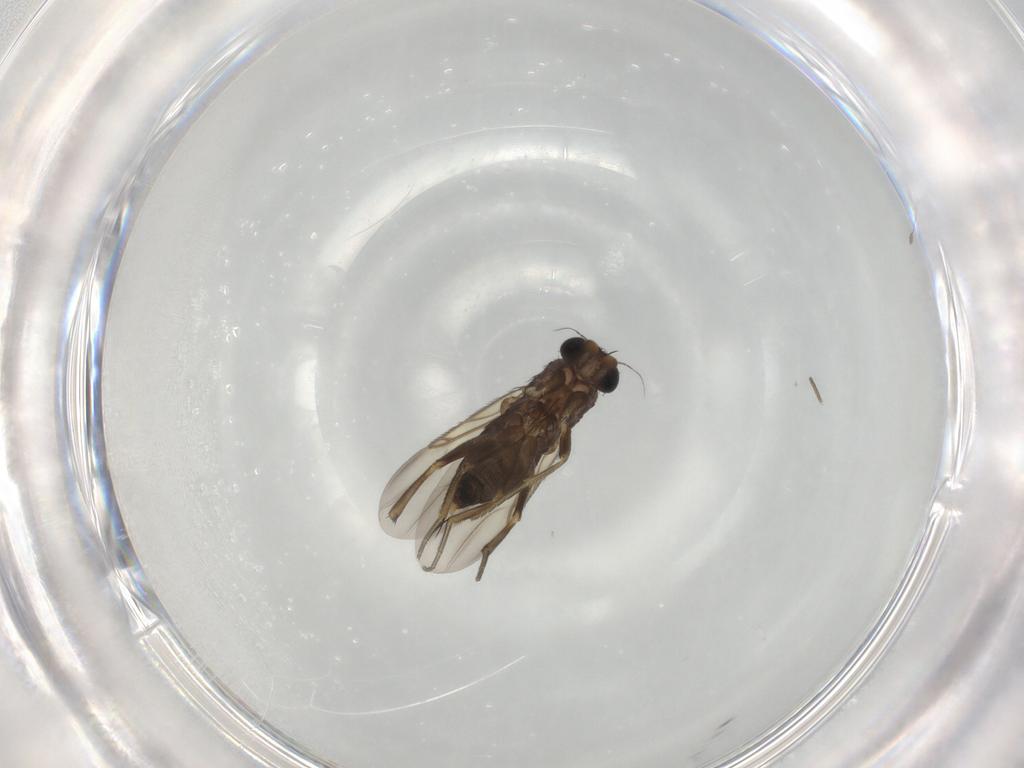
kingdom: Animalia
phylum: Arthropoda
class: Insecta
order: Diptera
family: Phoridae
